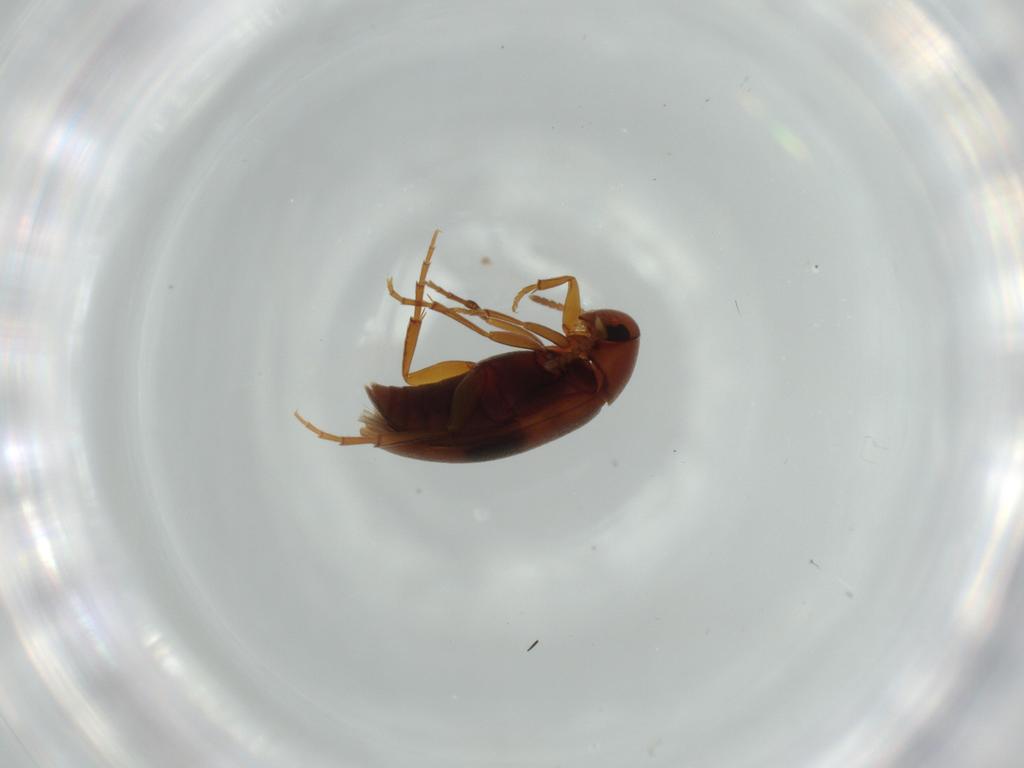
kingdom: Animalia
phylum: Arthropoda
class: Insecta
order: Coleoptera
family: Scraptiidae
